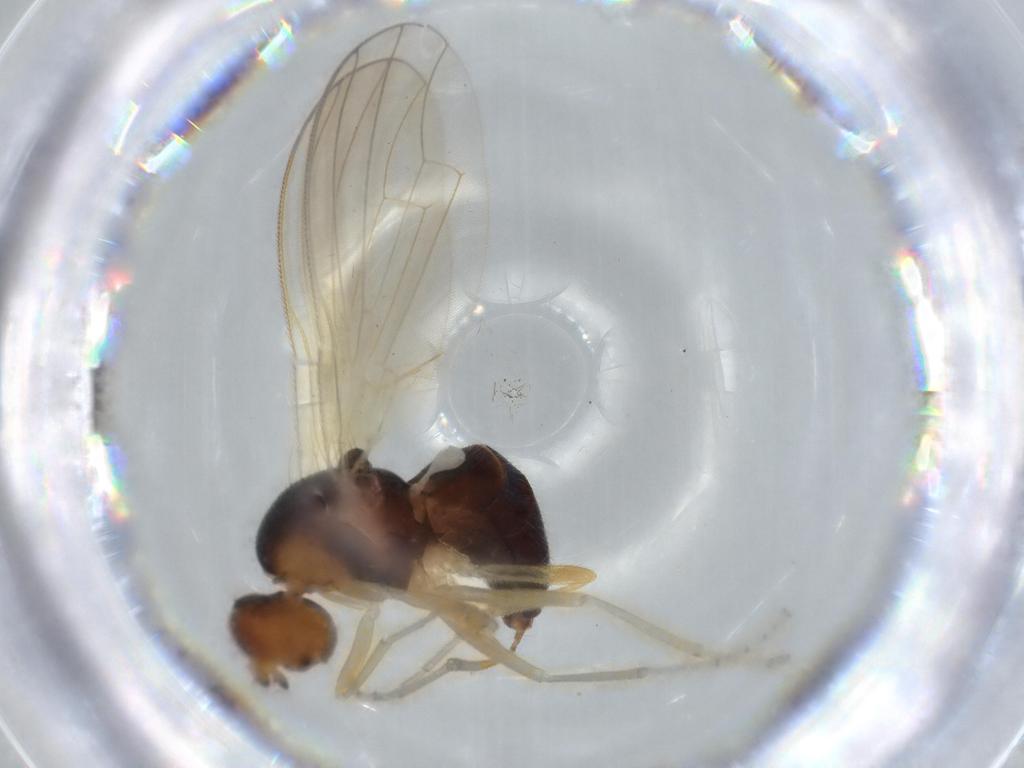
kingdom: Animalia
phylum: Arthropoda
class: Insecta
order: Diptera
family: Psilidae
